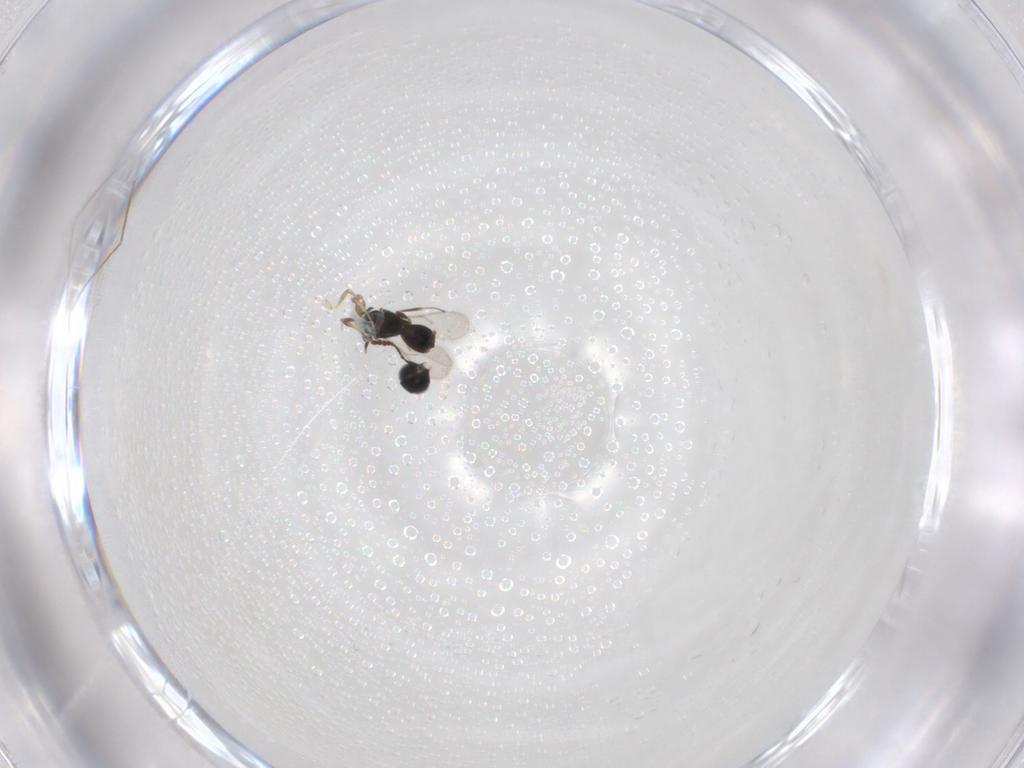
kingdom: Animalia
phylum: Arthropoda
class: Insecta
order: Hymenoptera
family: Scelionidae
